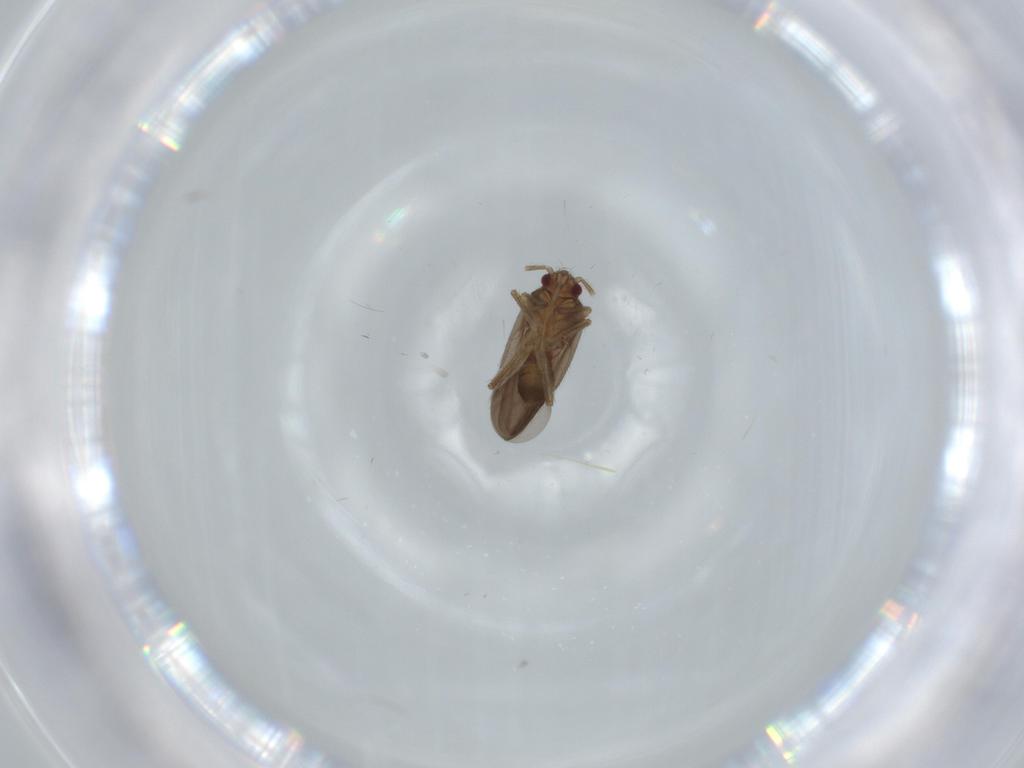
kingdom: Animalia
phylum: Arthropoda
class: Insecta
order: Hemiptera
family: Ceratocombidae
